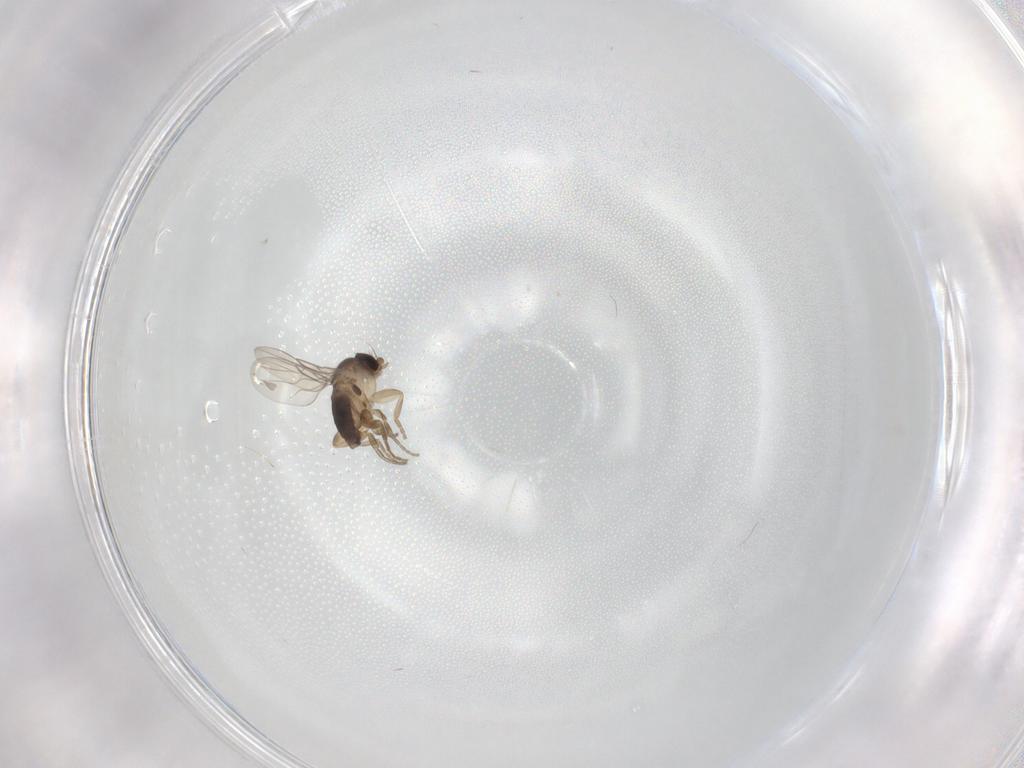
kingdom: Animalia
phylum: Arthropoda
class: Insecta
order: Diptera
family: Phoridae
